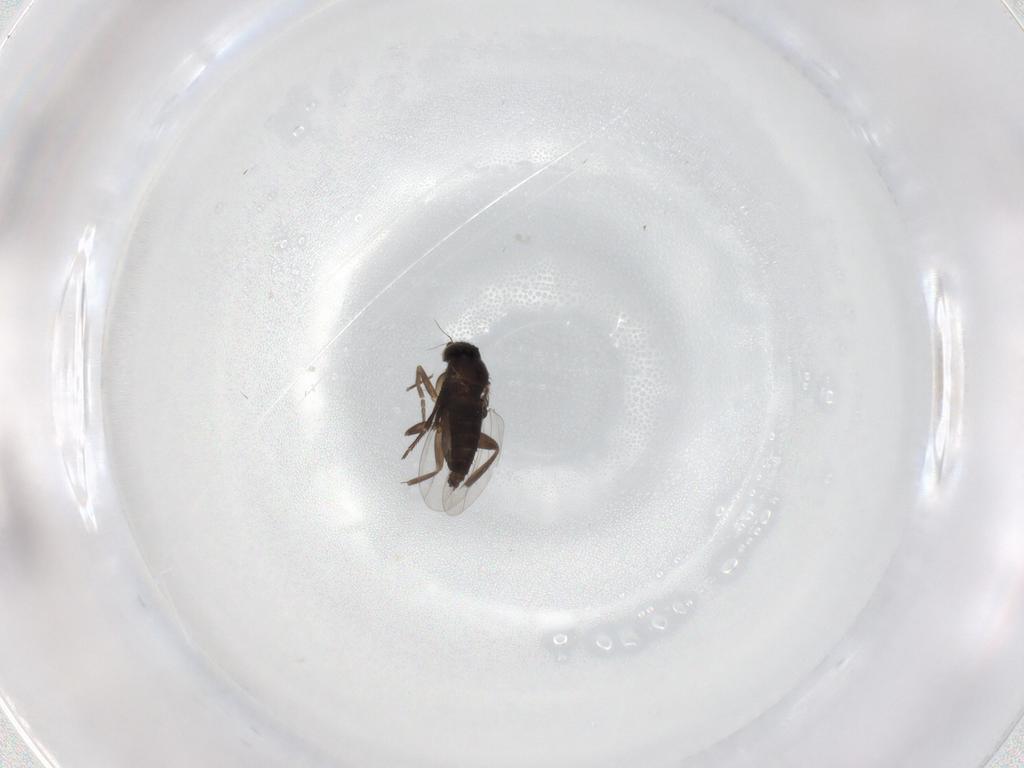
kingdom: Animalia
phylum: Arthropoda
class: Insecta
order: Diptera
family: Phoridae
